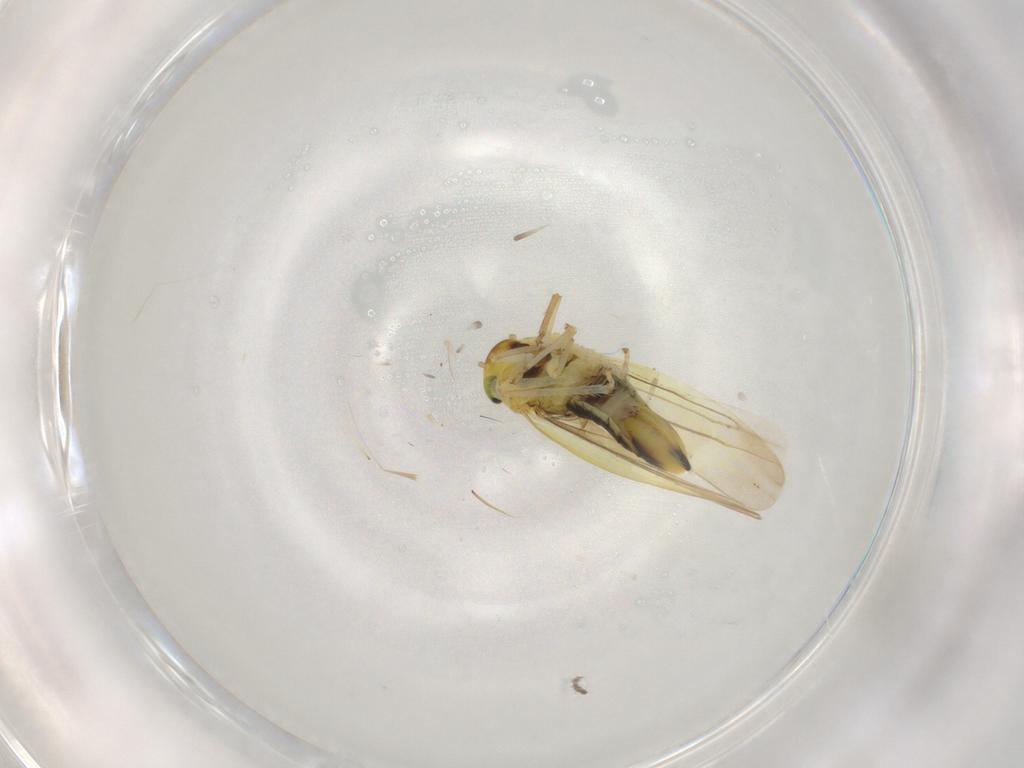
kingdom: Animalia
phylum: Arthropoda
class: Insecta
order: Hemiptera
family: Cicadellidae
